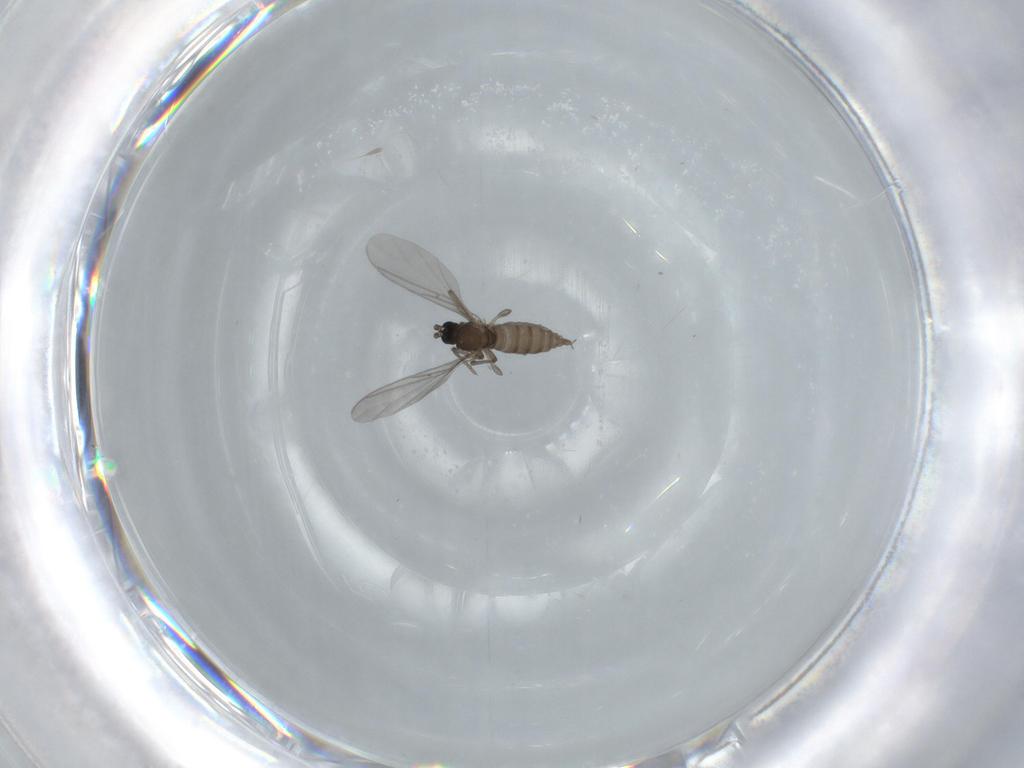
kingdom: Animalia
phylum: Arthropoda
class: Insecta
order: Diptera
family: Sciaridae
